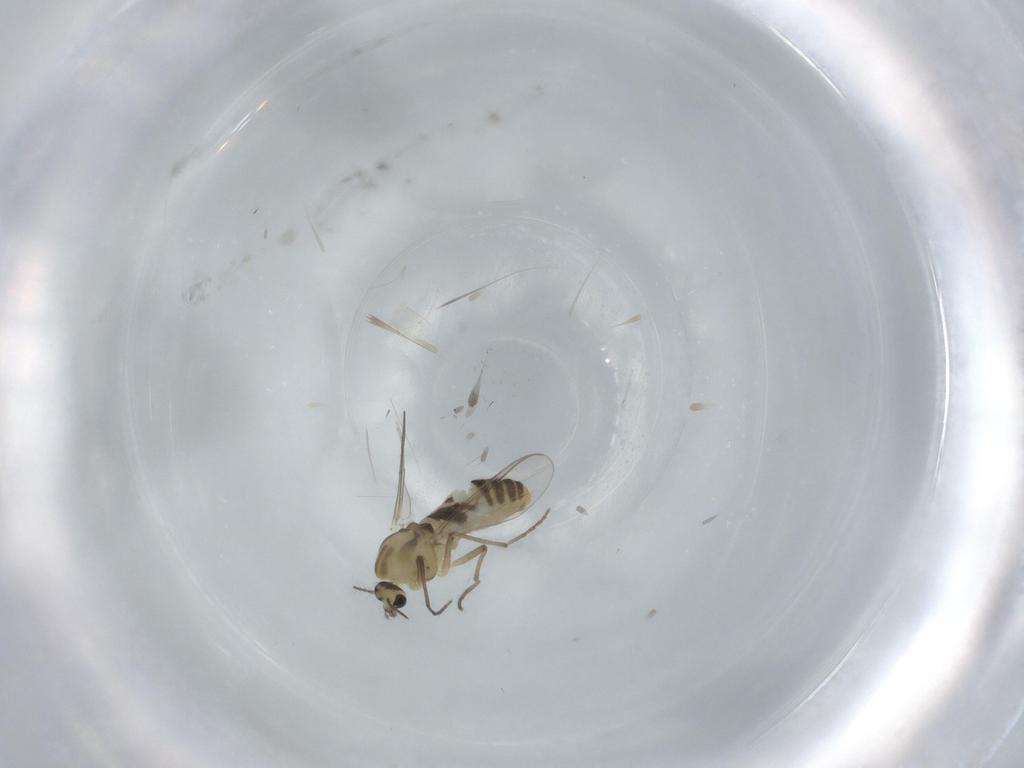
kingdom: Animalia
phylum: Arthropoda
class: Insecta
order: Diptera
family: Chironomidae
